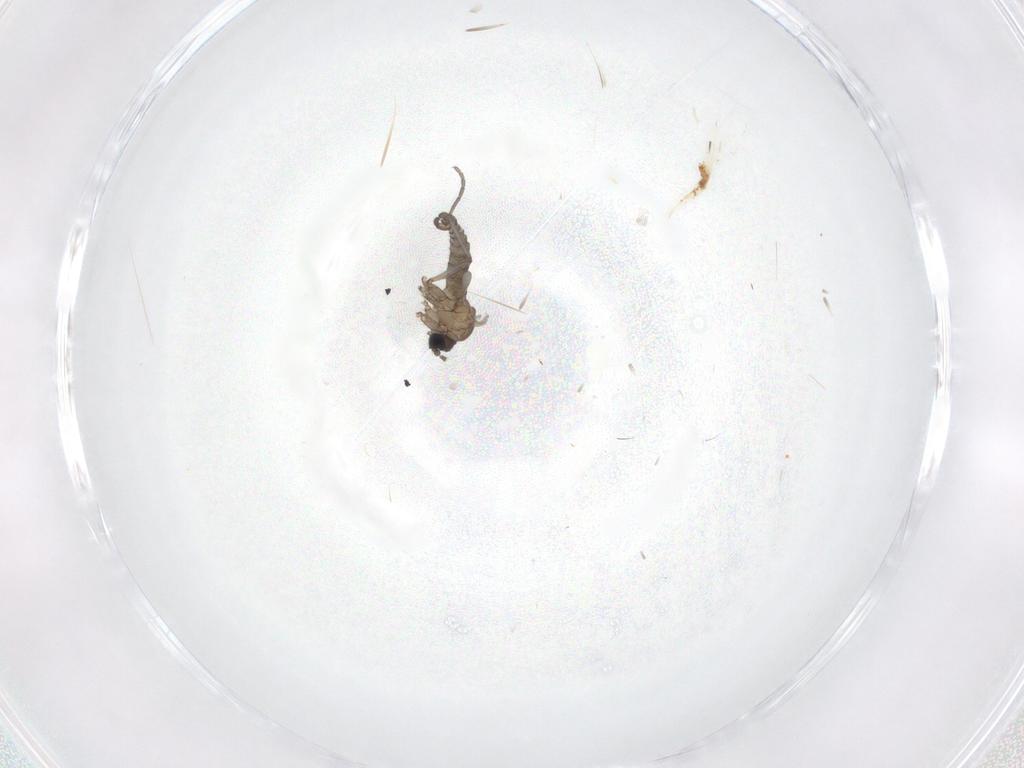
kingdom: Animalia
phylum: Arthropoda
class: Insecta
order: Diptera
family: Sciaridae
